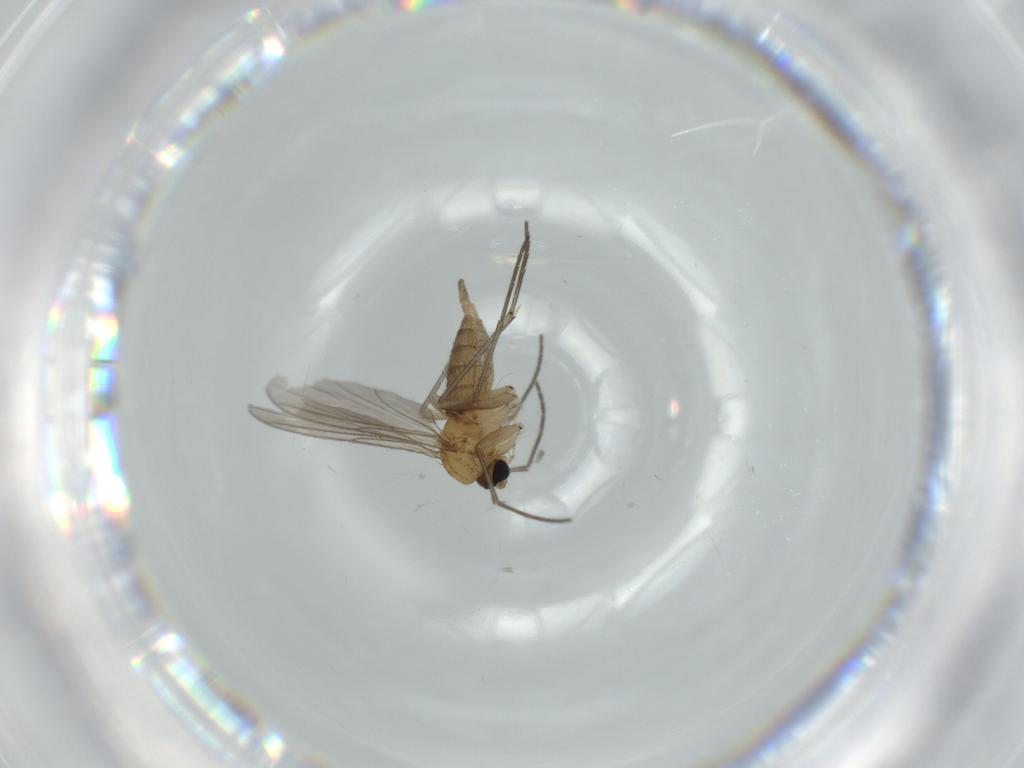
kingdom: Animalia
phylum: Arthropoda
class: Insecta
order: Diptera
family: Sciaridae
